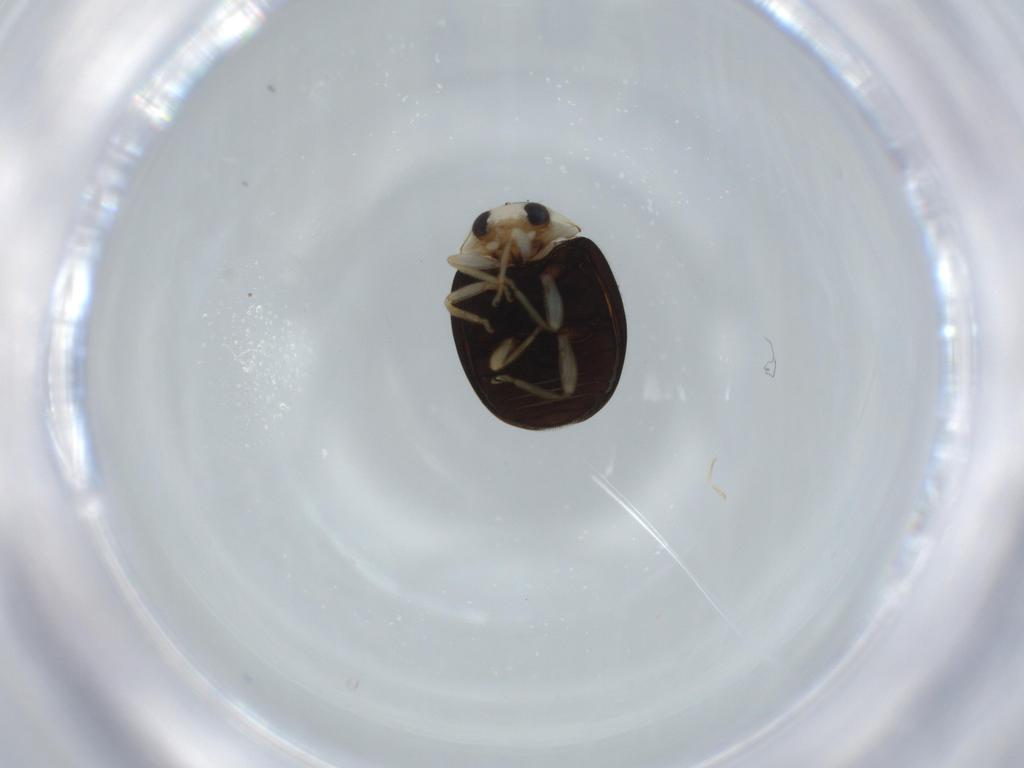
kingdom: Animalia
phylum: Arthropoda
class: Insecta
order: Coleoptera
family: Coccinellidae
